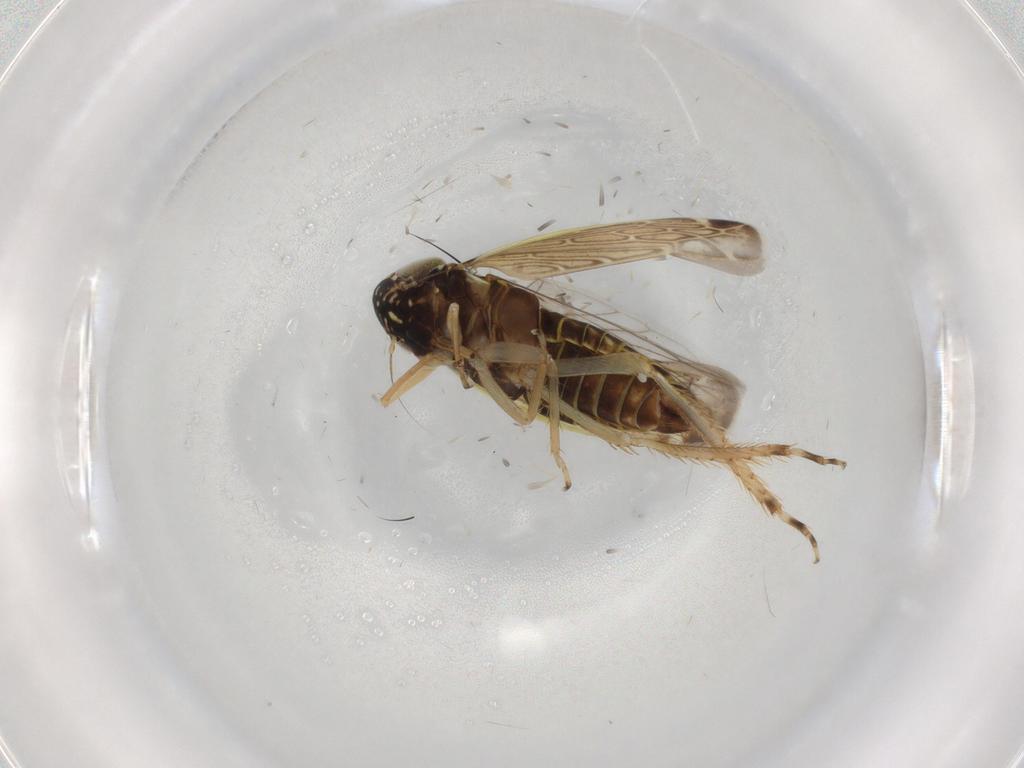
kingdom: Animalia
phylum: Arthropoda
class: Insecta
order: Hemiptera
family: Cicadellidae
